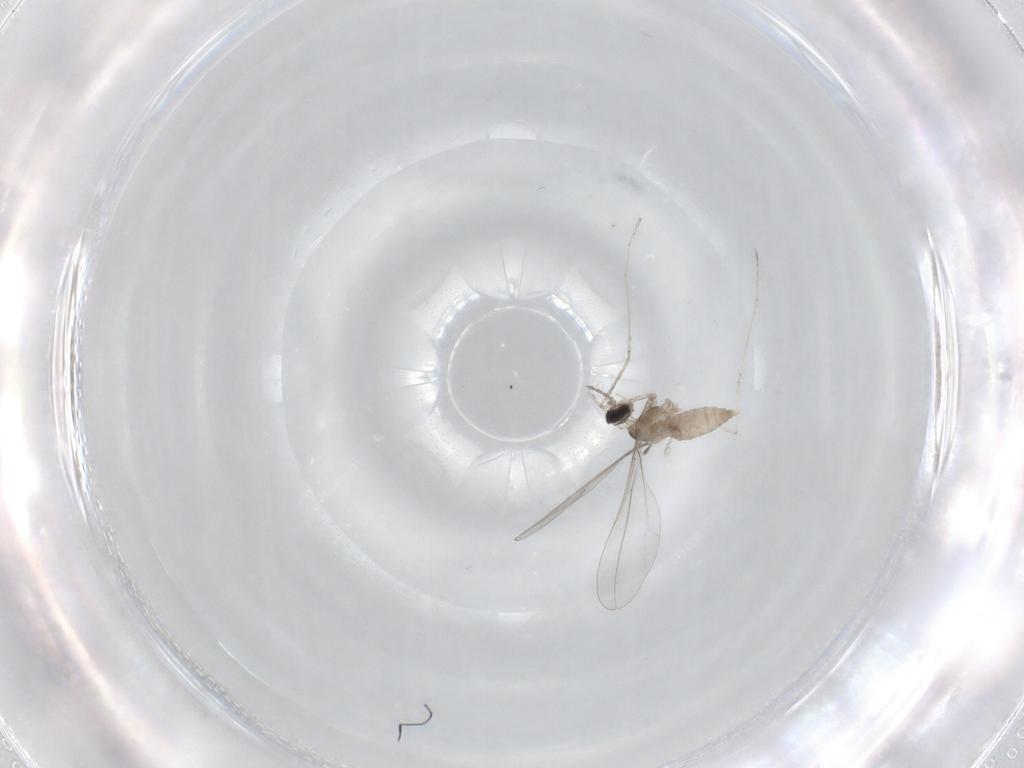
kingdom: Animalia
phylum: Arthropoda
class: Insecta
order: Diptera
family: Cecidomyiidae
